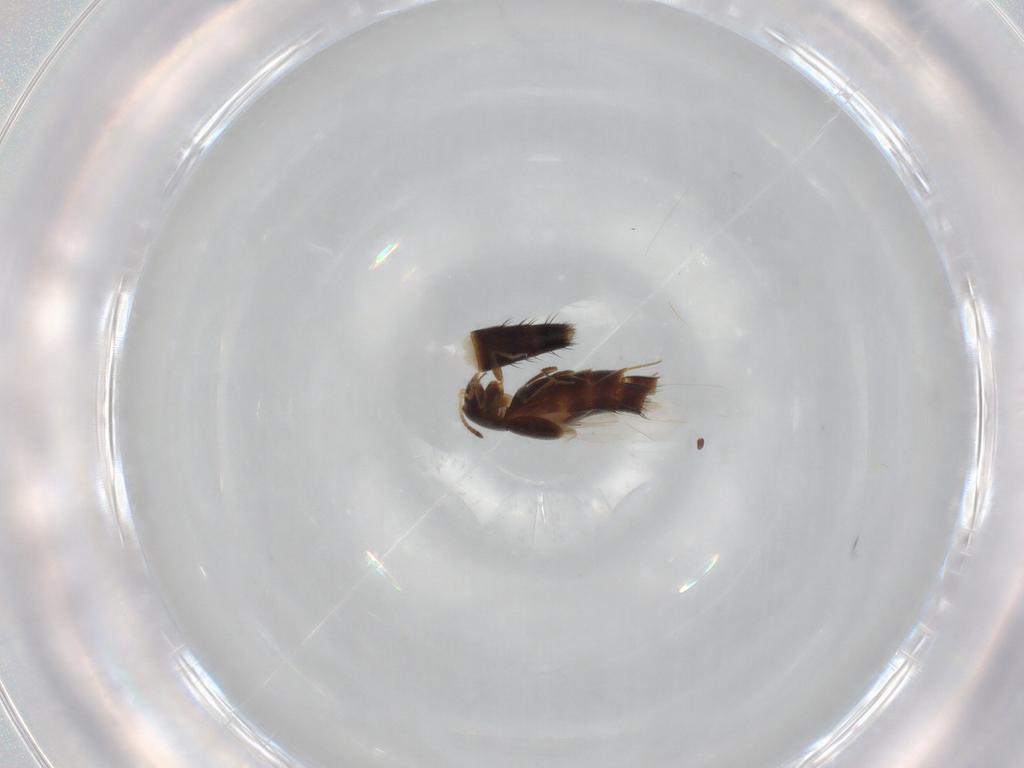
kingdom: Animalia
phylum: Arthropoda
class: Insecta
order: Coleoptera
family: Staphylinidae
